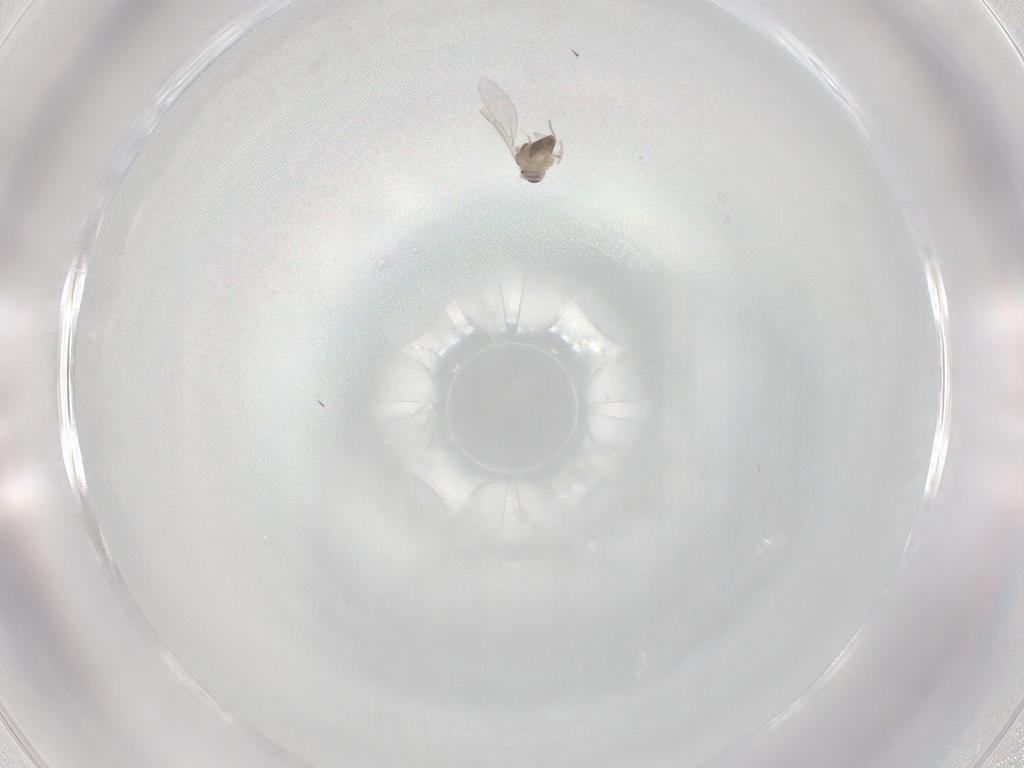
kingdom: Animalia
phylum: Arthropoda
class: Insecta
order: Diptera
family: Cecidomyiidae
